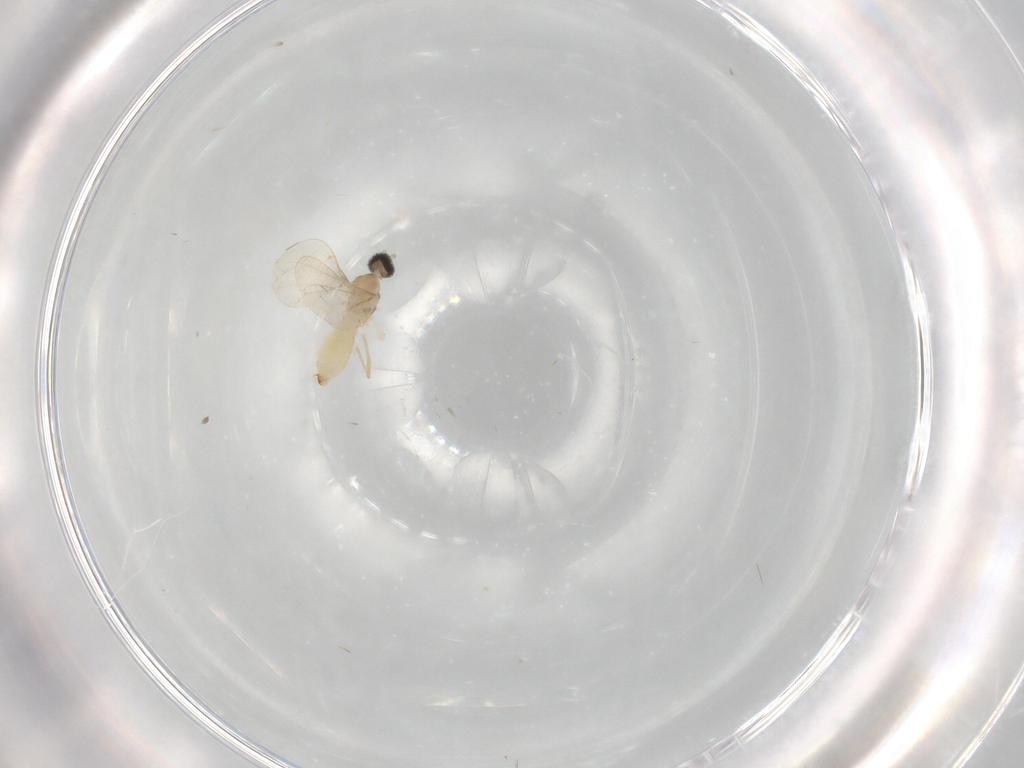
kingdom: Animalia
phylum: Arthropoda
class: Insecta
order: Diptera
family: Cecidomyiidae
